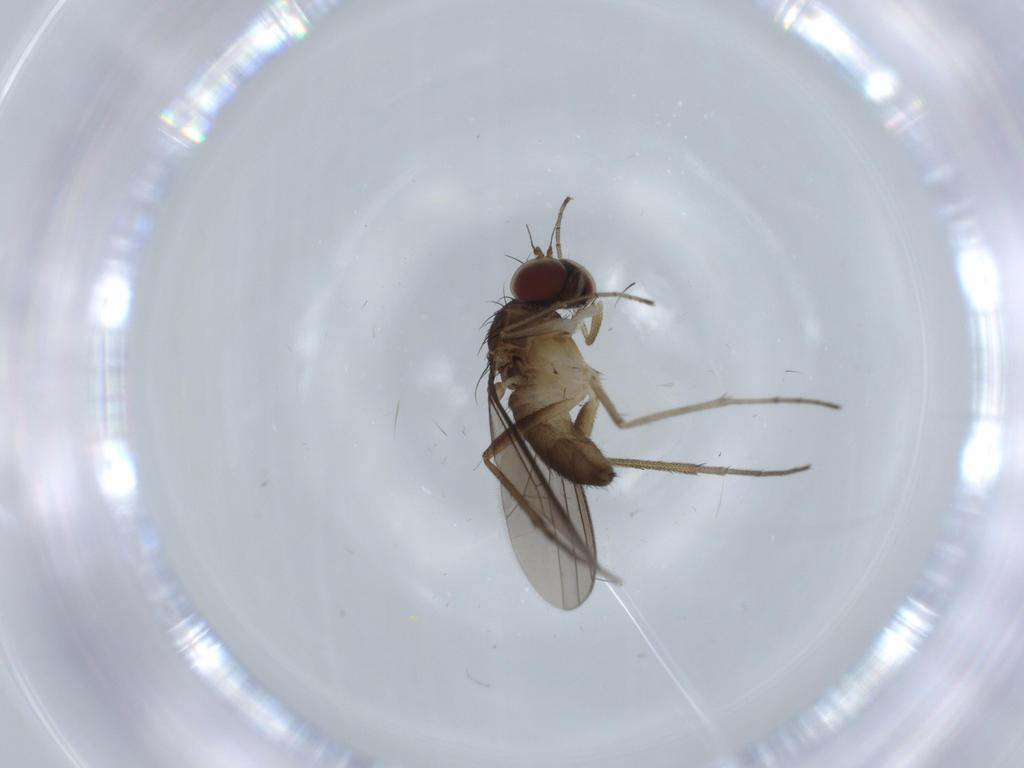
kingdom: Animalia
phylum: Arthropoda
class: Insecta
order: Diptera
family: Dolichopodidae
